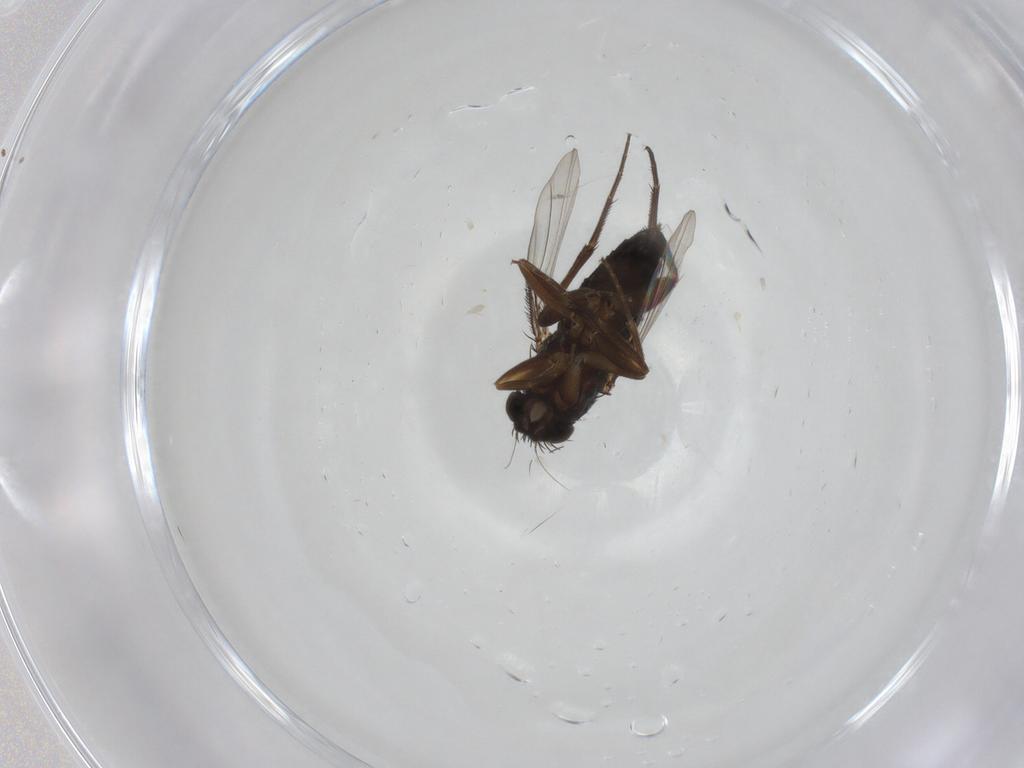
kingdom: Animalia
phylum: Arthropoda
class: Insecta
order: Diptera
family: Phoridae
